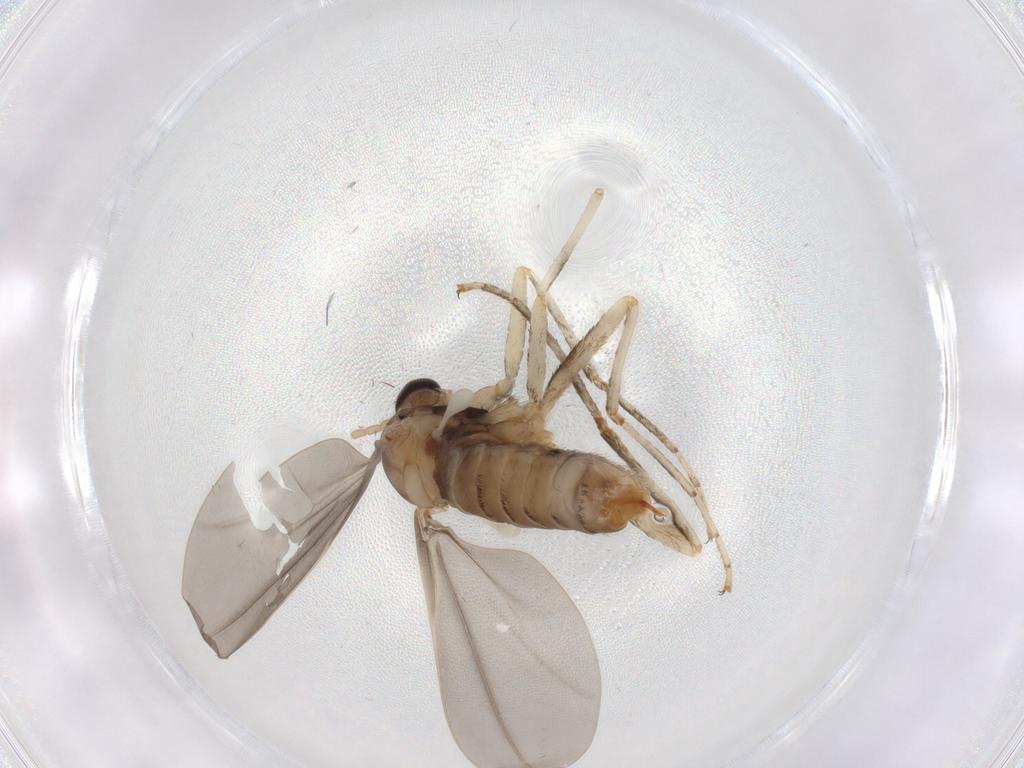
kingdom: Animalia
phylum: Arthropoda
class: Insecta
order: Diptera
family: Cecidomyiidae
